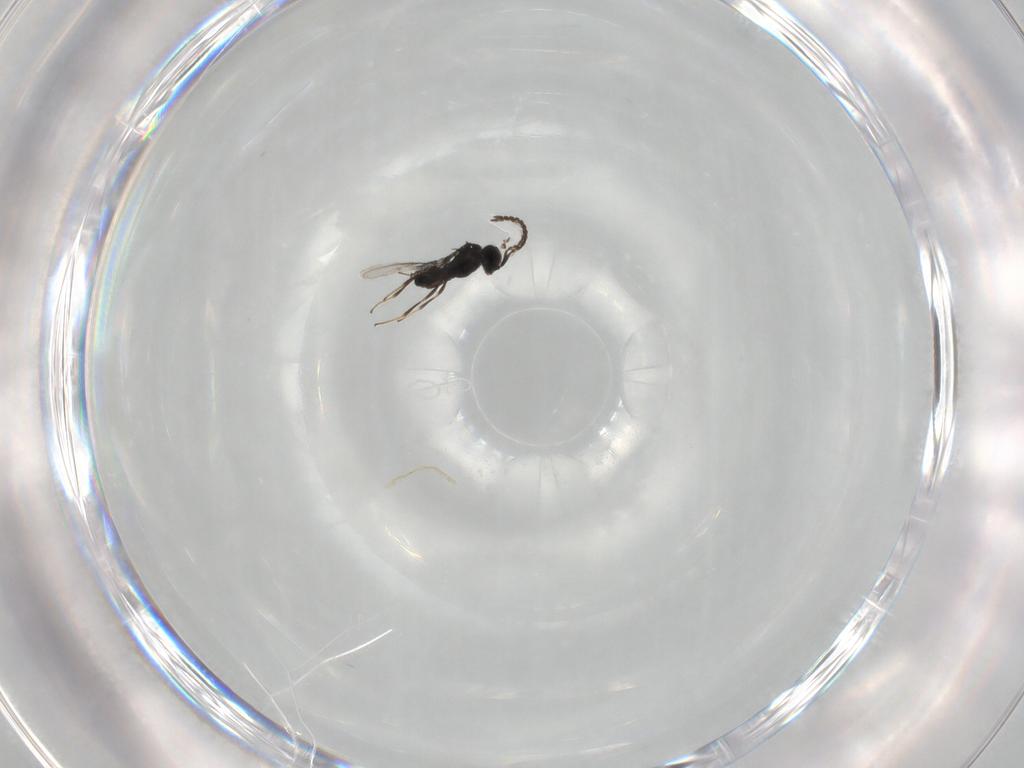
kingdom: Animalia
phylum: Arthropoda
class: Insecta
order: Hymenoptera
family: Scelionidae
